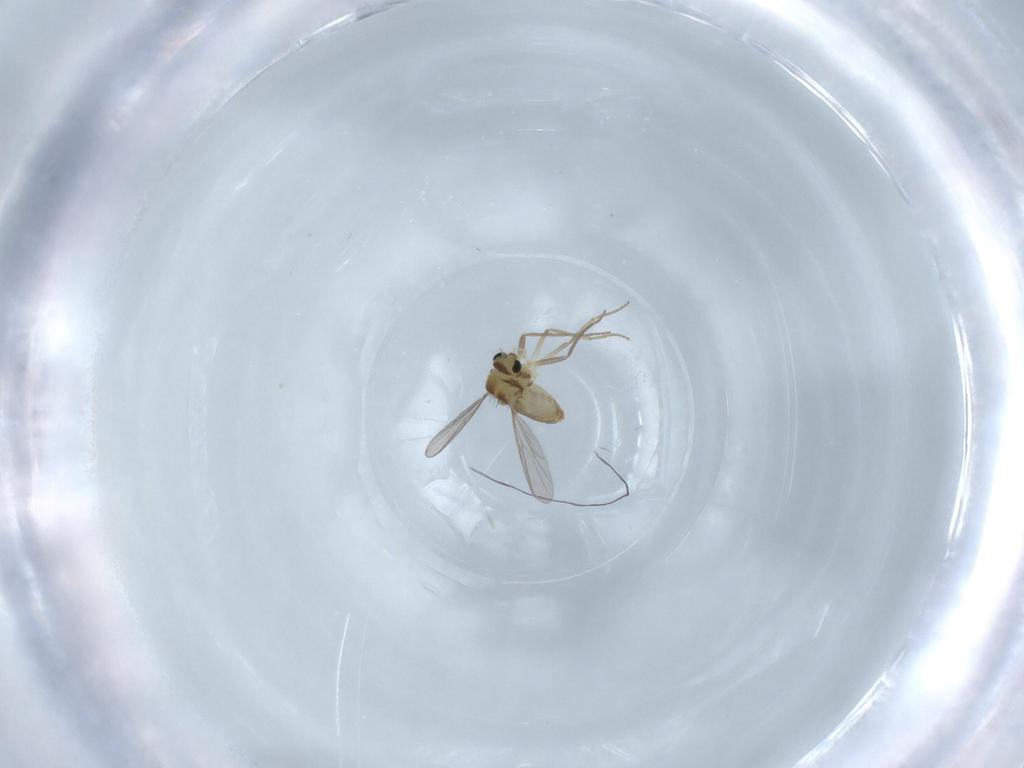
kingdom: Animalia
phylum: Arthropoda
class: Insecta
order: Diptera
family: Chironomidae
